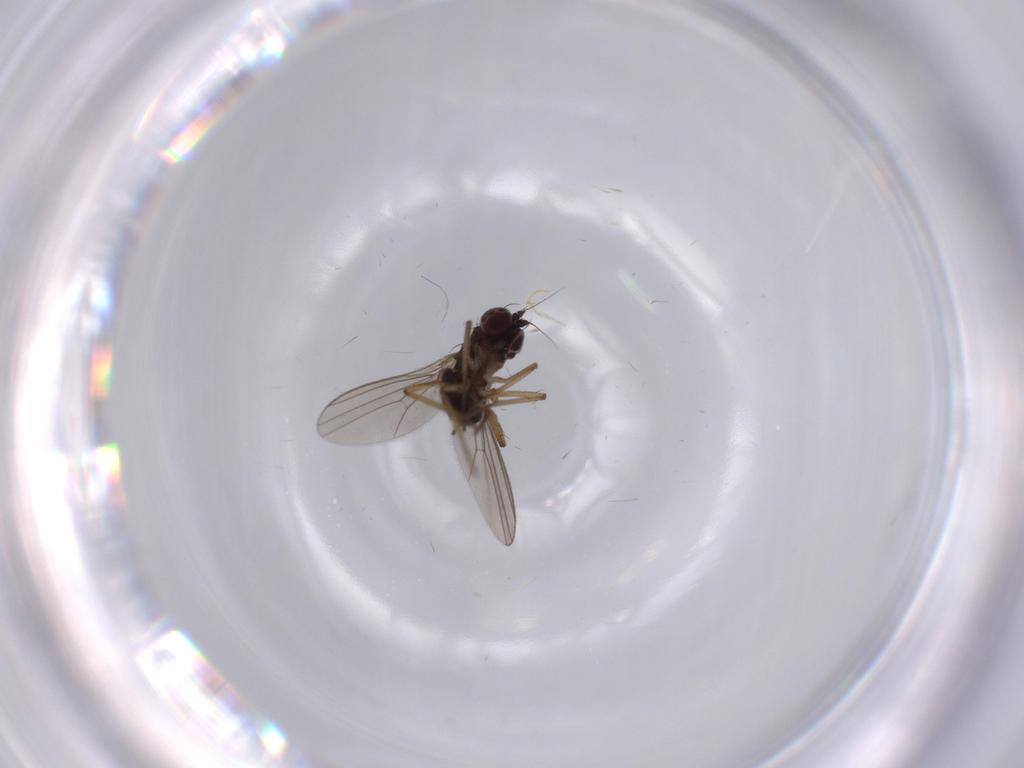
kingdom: Animalia
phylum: Arthropoda
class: Insecta
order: Diptera
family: Dolichopodidae
